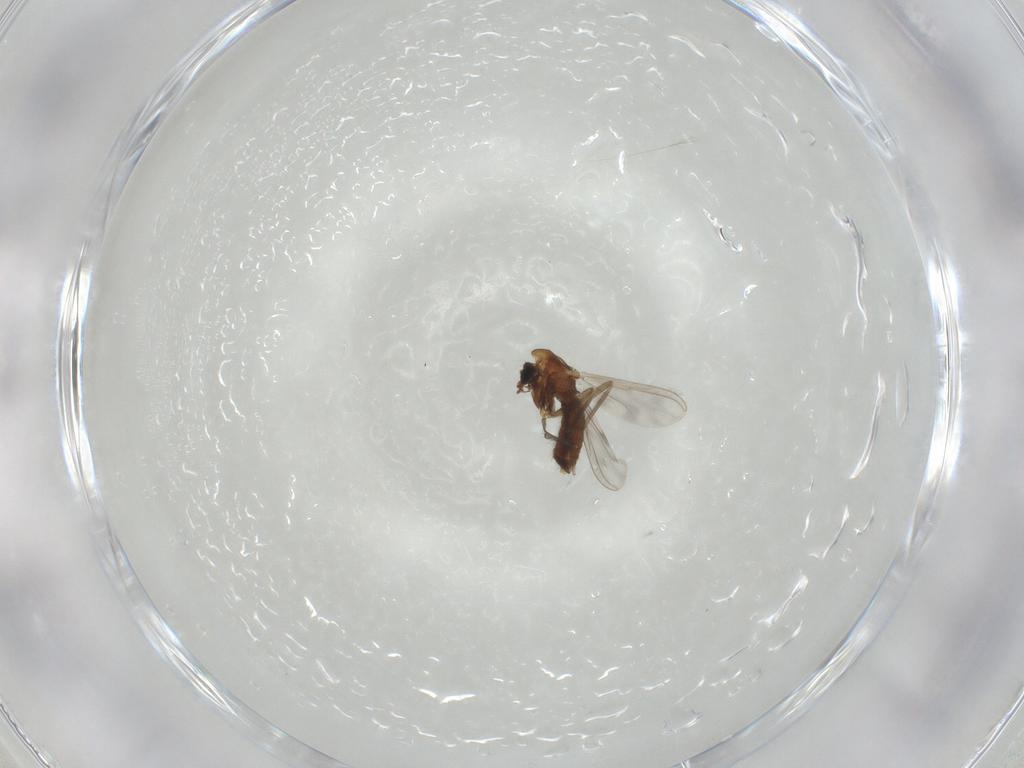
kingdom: Animalia
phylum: Arthropoda
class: Insecta
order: Diptera
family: Chironomidae
